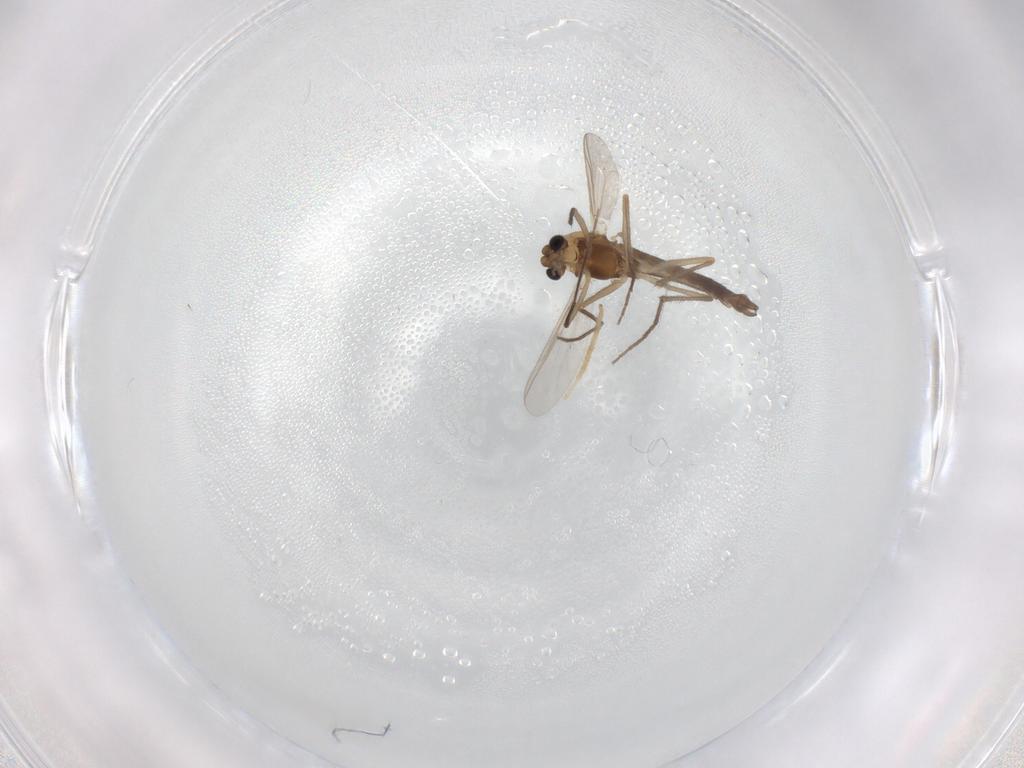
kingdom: Animalia
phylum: Arthropoda
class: Insecta
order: Diptera
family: Chironomidae
